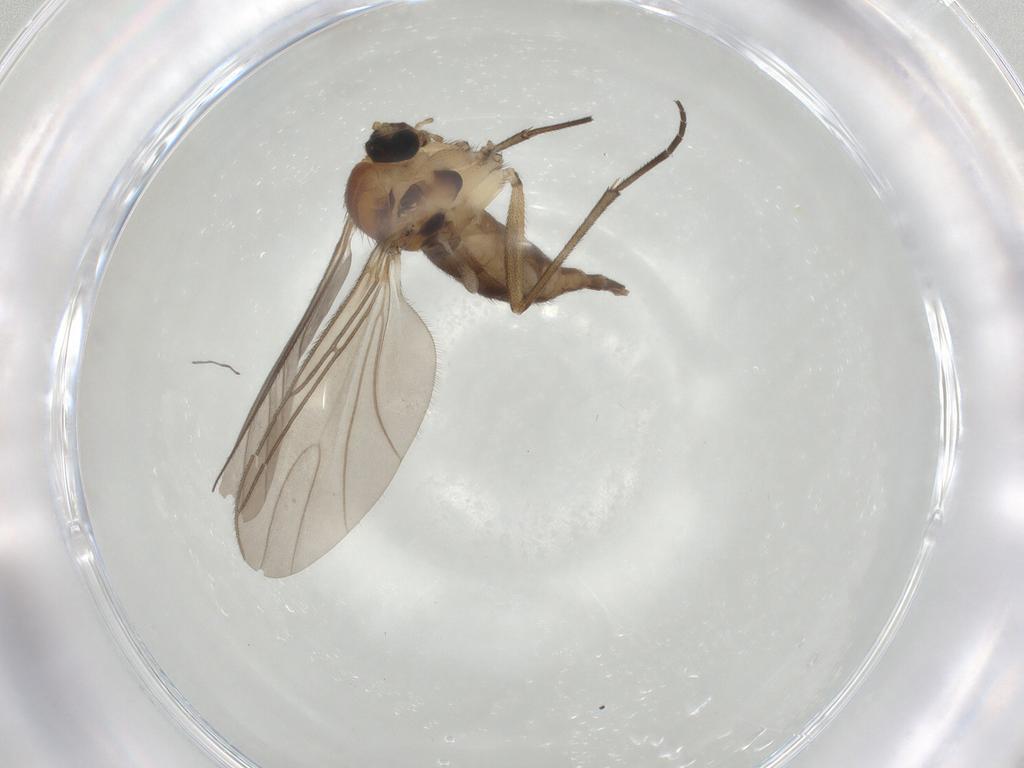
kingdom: Animalia
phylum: Arthropoda
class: Insecta
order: Diptera
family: Sciaridae
